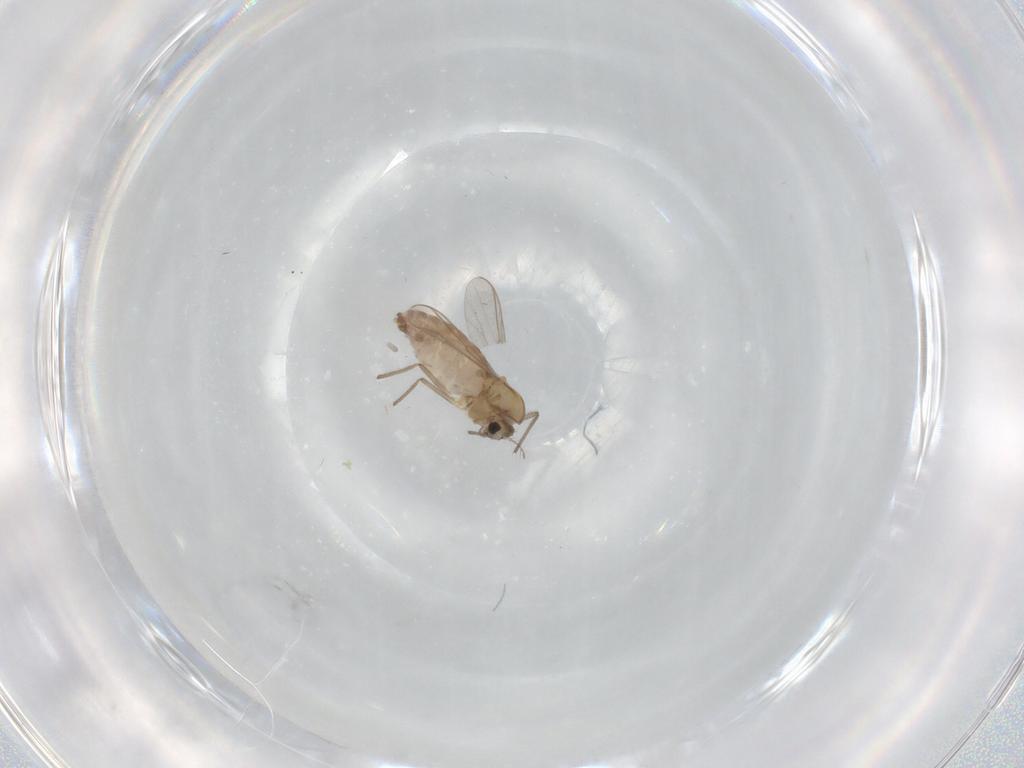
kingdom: Animalia
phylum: Arthropoda
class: Insecta
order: Diptera
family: Chironomidae
